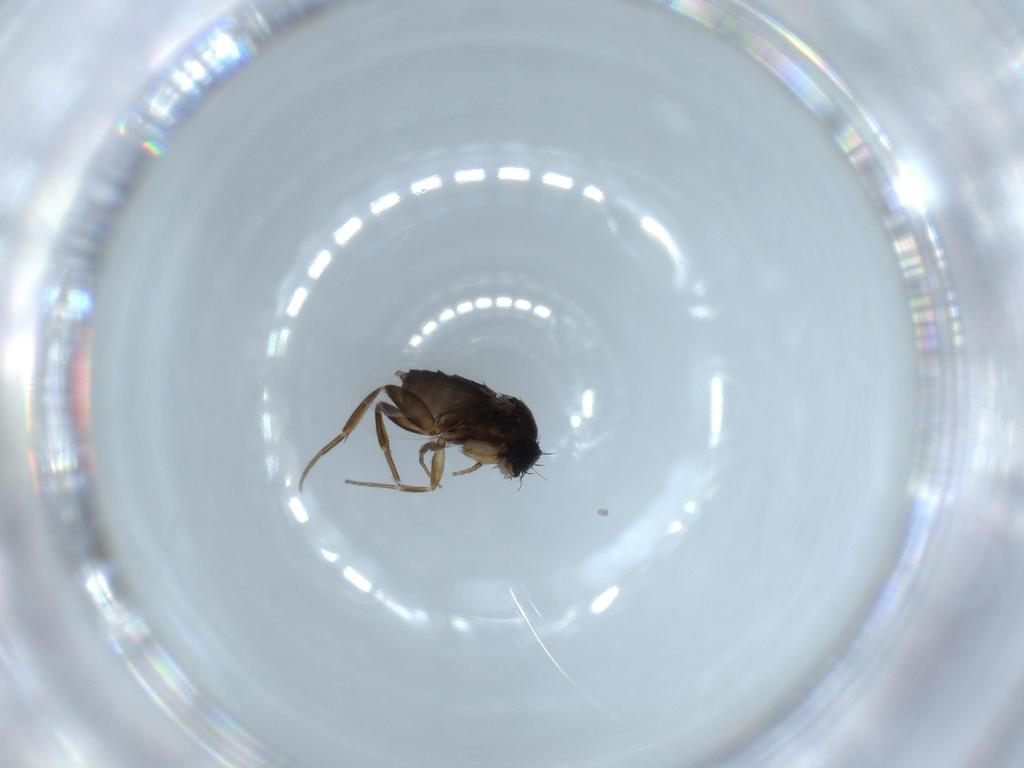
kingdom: Animalia
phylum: Arthropoda
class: Insecta
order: Diptera
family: Phoridae
